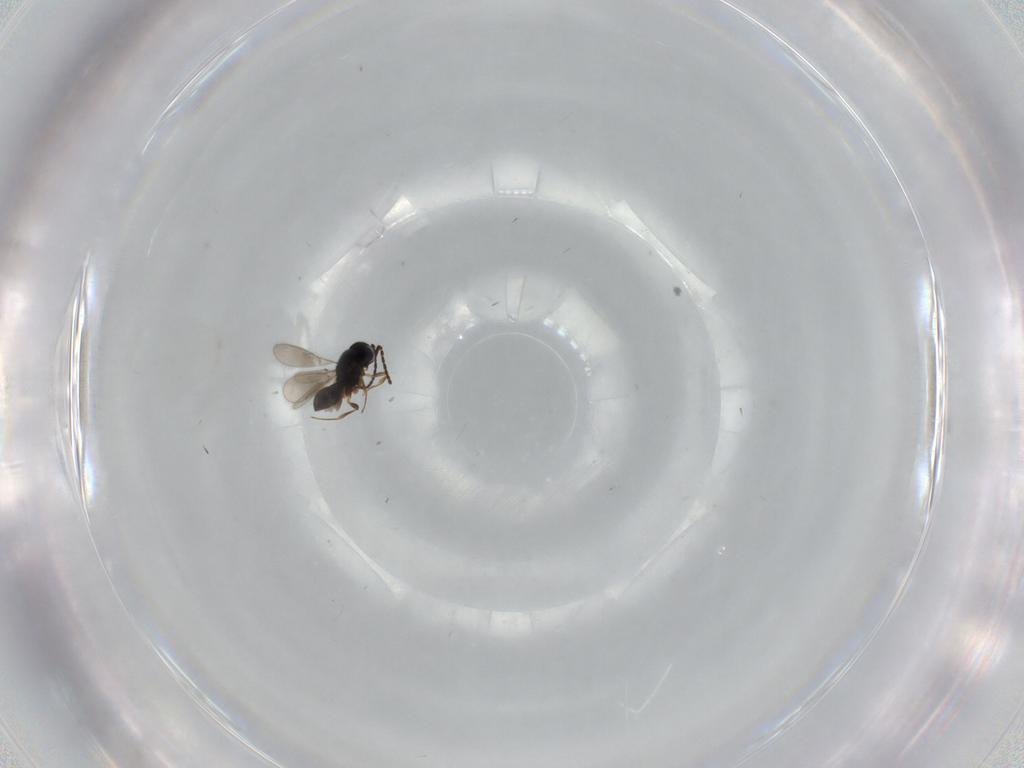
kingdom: Animalia
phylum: Arthropoda
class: Insecta
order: Hymenoptera
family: Scelionidae
